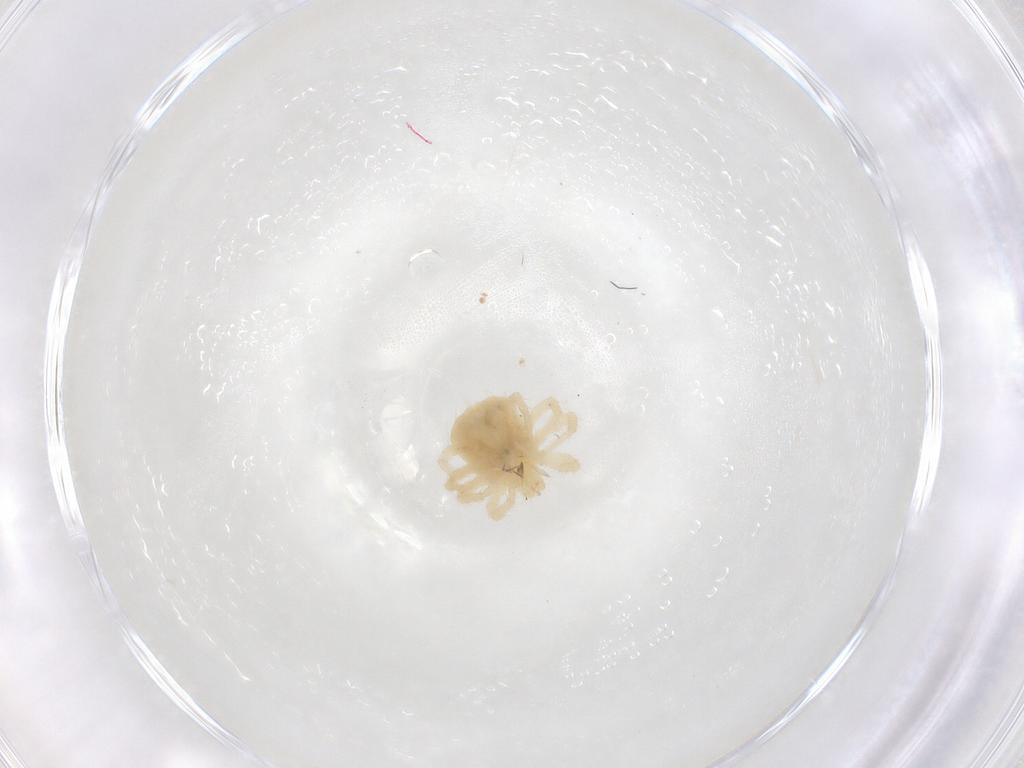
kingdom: Animalia
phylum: Arthropoda
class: Arachnida
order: Trombidiformes
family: Anystidae
